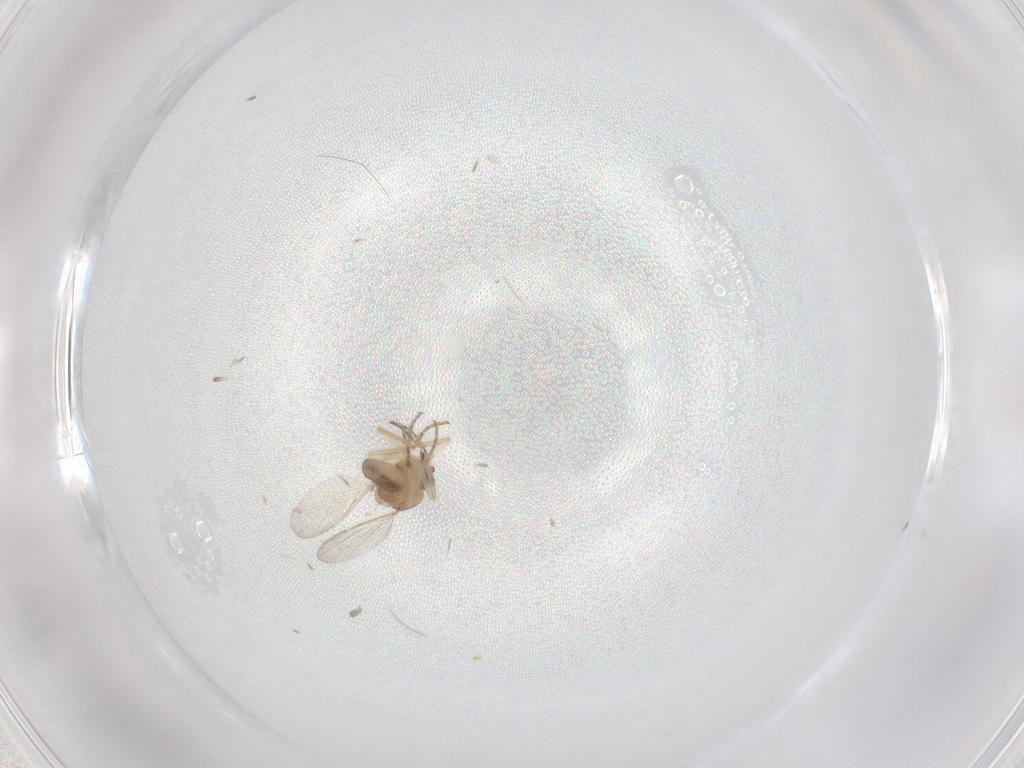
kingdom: Animalia
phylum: Arthropoda
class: Insecta
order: Diptera
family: Ceratopogonidae
